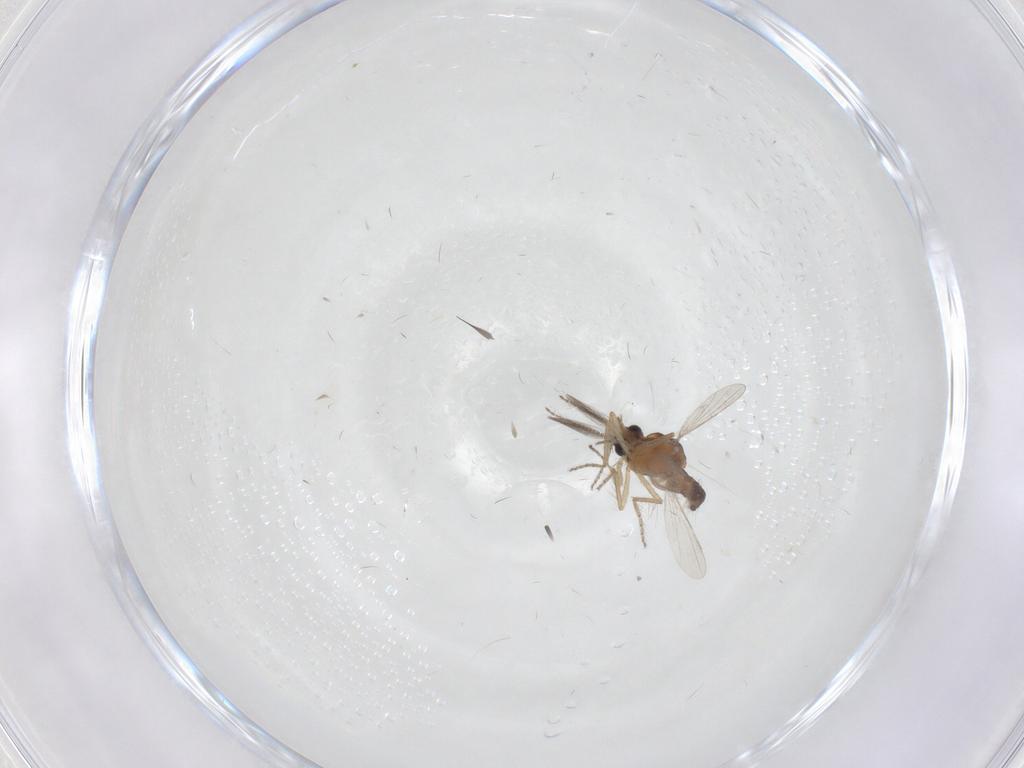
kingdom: Animalia
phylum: Arthropoda
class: Insecta
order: Diptera
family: Ceratopogonidae
